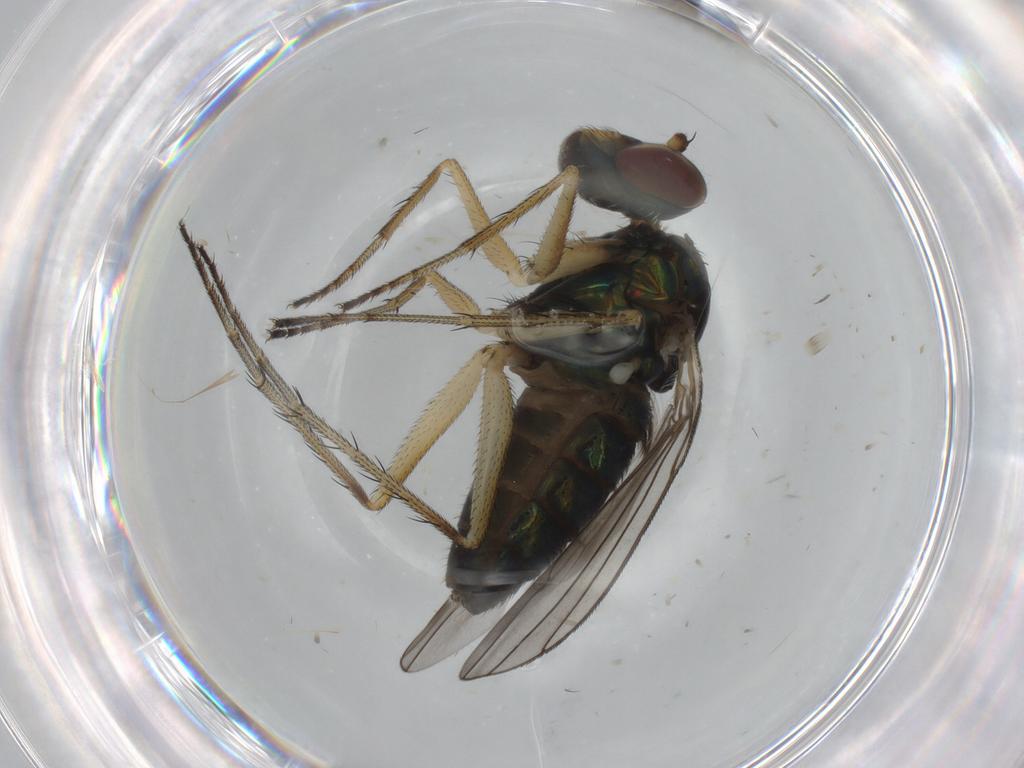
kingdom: Animalia
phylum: Arthropoda
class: Insecta
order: Diptera
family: Dolichopodidae
